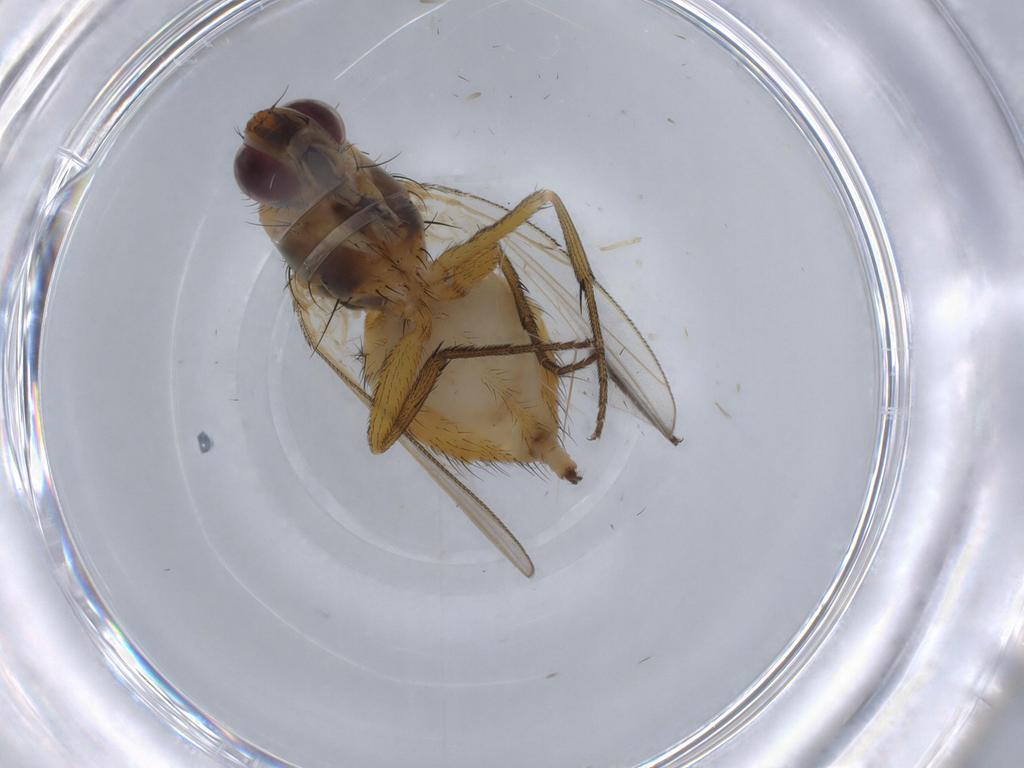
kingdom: Animalia
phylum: Arthropoda
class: Insecta
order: Diptera
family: Muscidae
